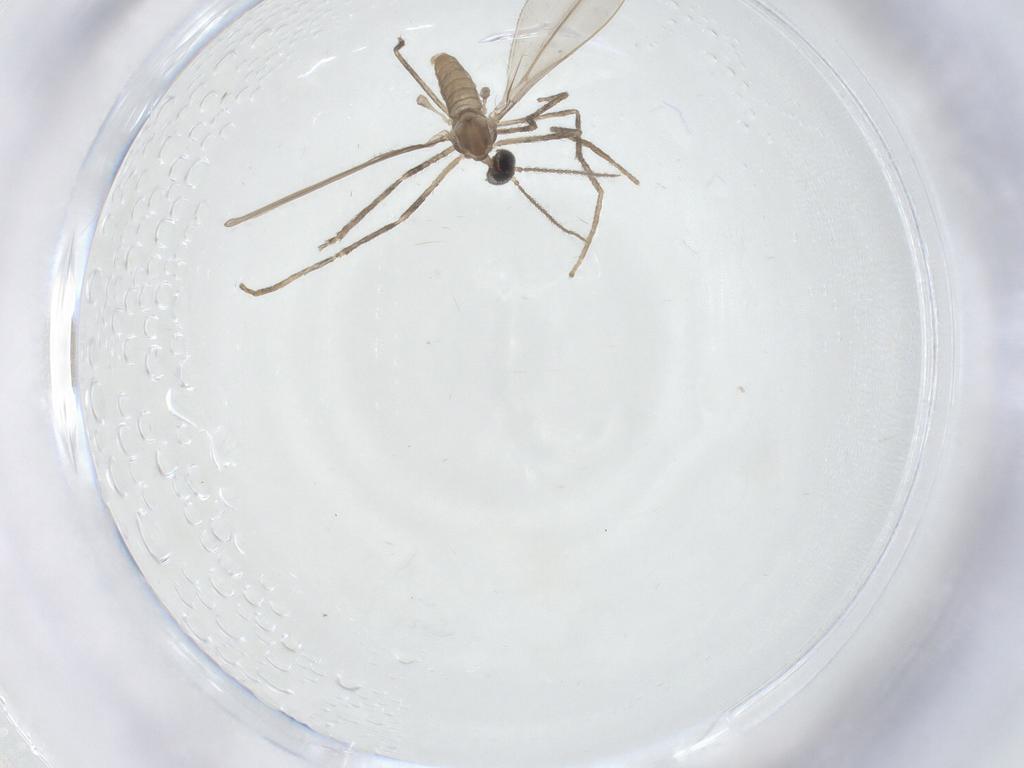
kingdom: Animalia
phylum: Arthropoda
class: Insecta
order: Diptera
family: Cecidomyiidae
